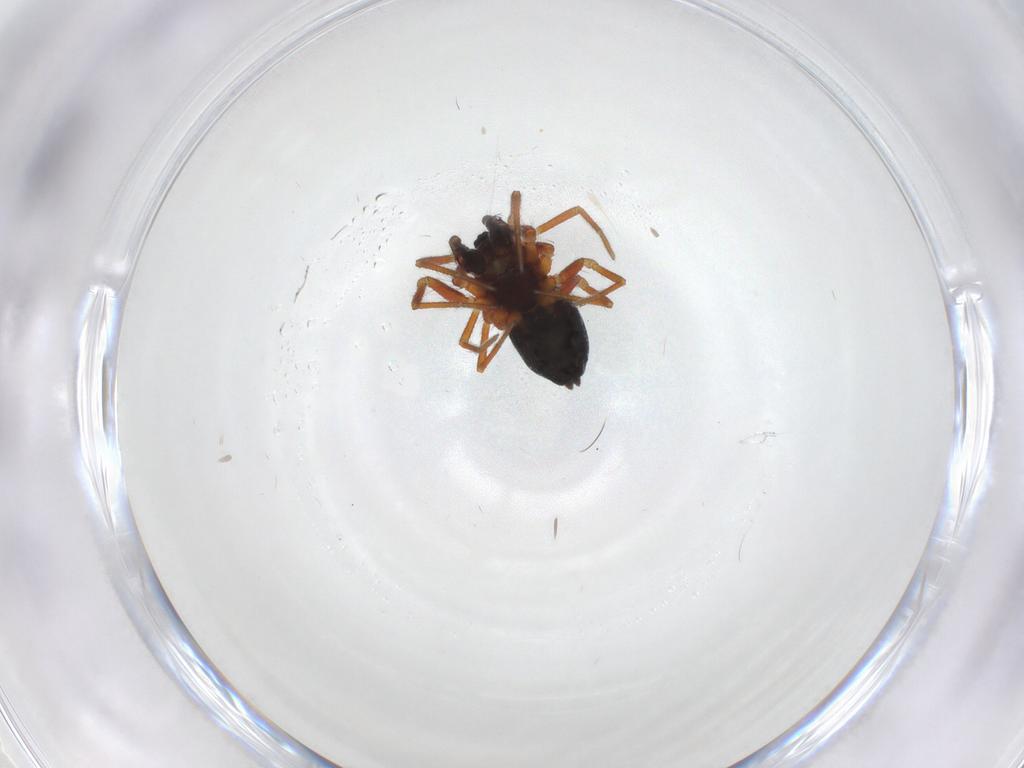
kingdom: Animalia
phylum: Arthropoda
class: Arachnida
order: Araneae
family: Linyphiidae
